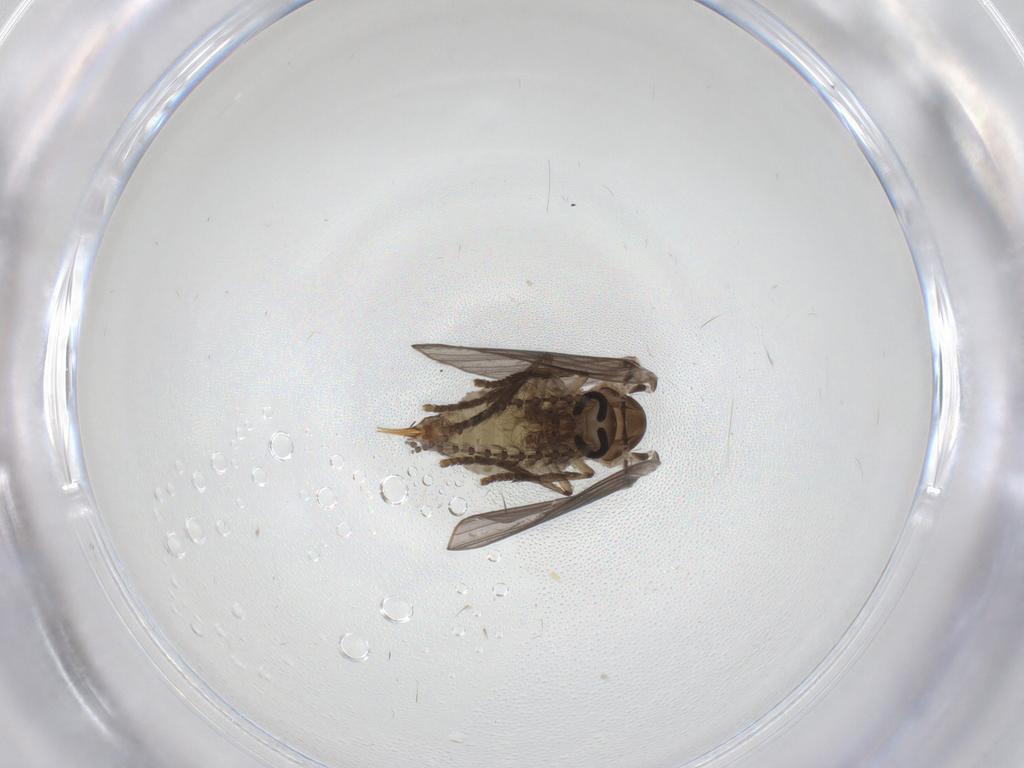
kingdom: Animalia
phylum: Arthropoda
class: Insecta
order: Diptera
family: Psychodidae
